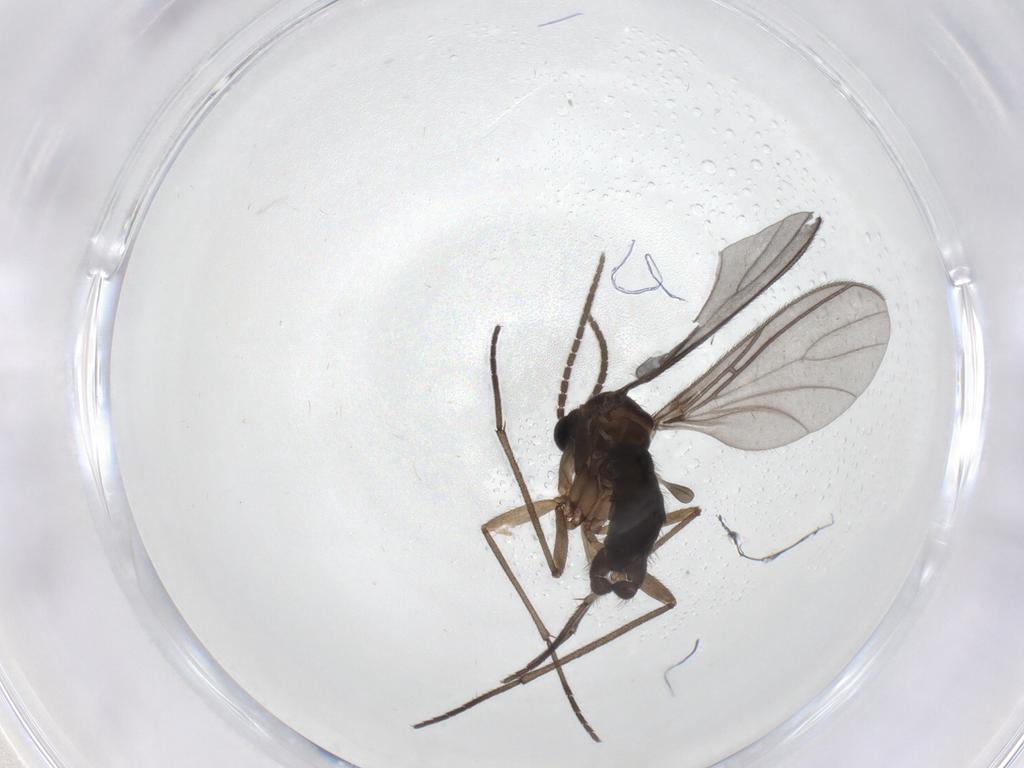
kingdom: Animalia
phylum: Arthropoda
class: Insecta
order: Diptera
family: Sciaridae
